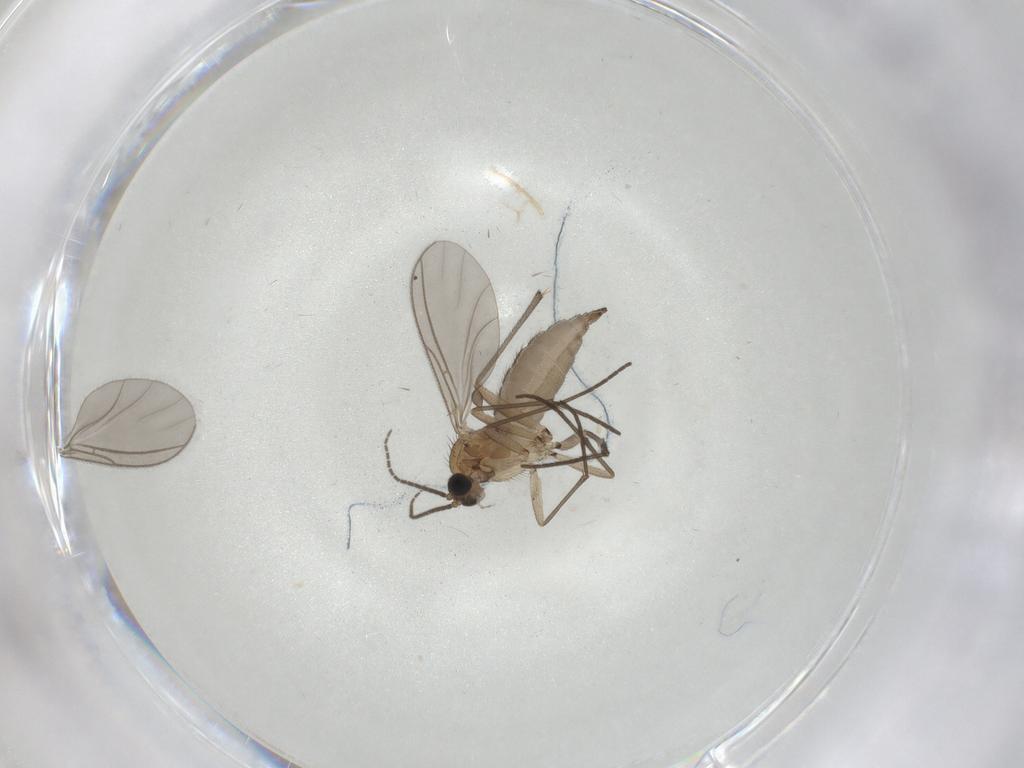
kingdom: Animalia
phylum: Arthropoda
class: Insecta
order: Diptera
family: Sciaridae
